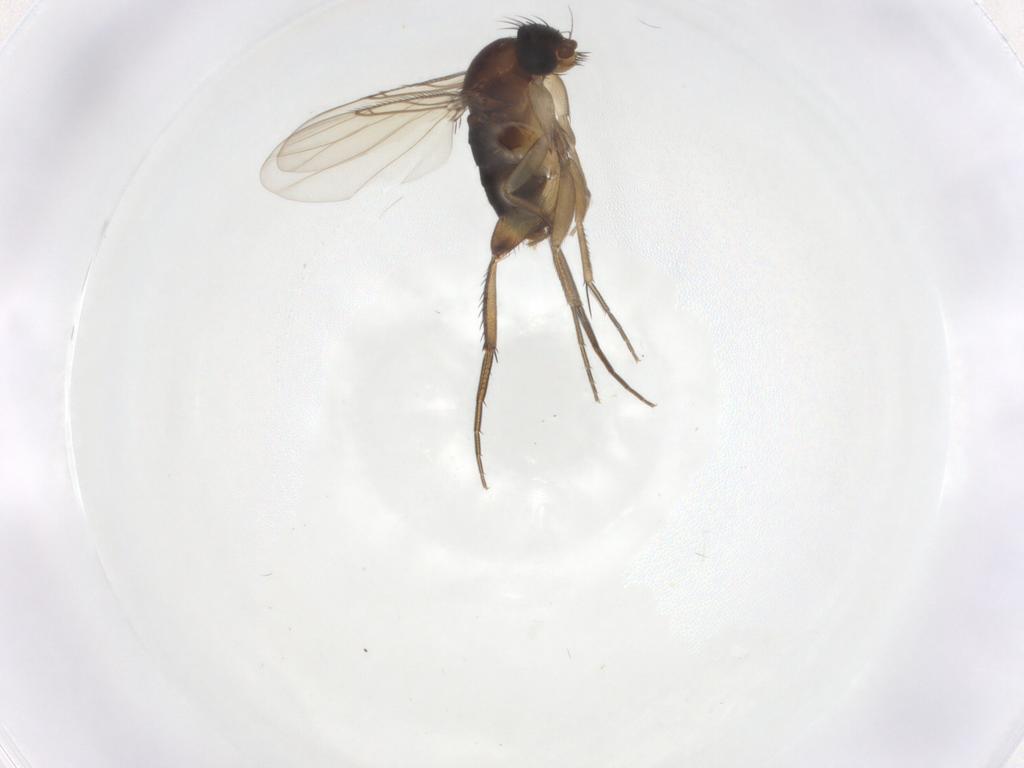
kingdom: Animalia
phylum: Arthropoda
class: Insecta
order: Diptera
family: Phoridae
